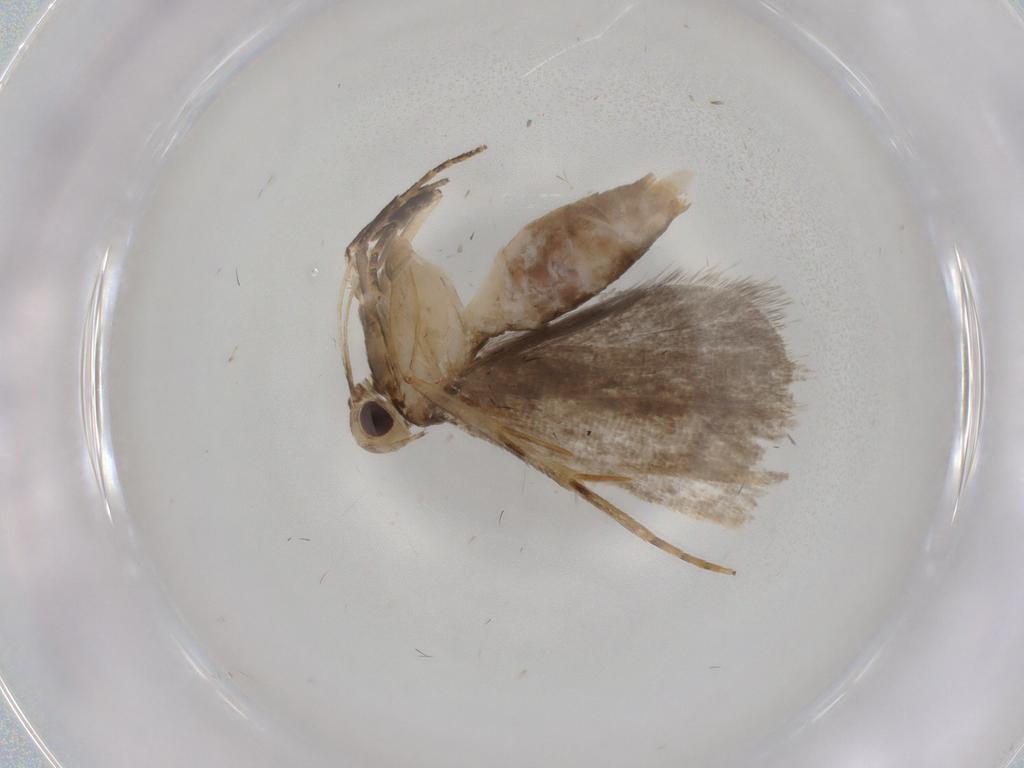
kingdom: Animalia
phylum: Arthropoda
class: Insecta
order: Lepidoptera
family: Gelechiidae
